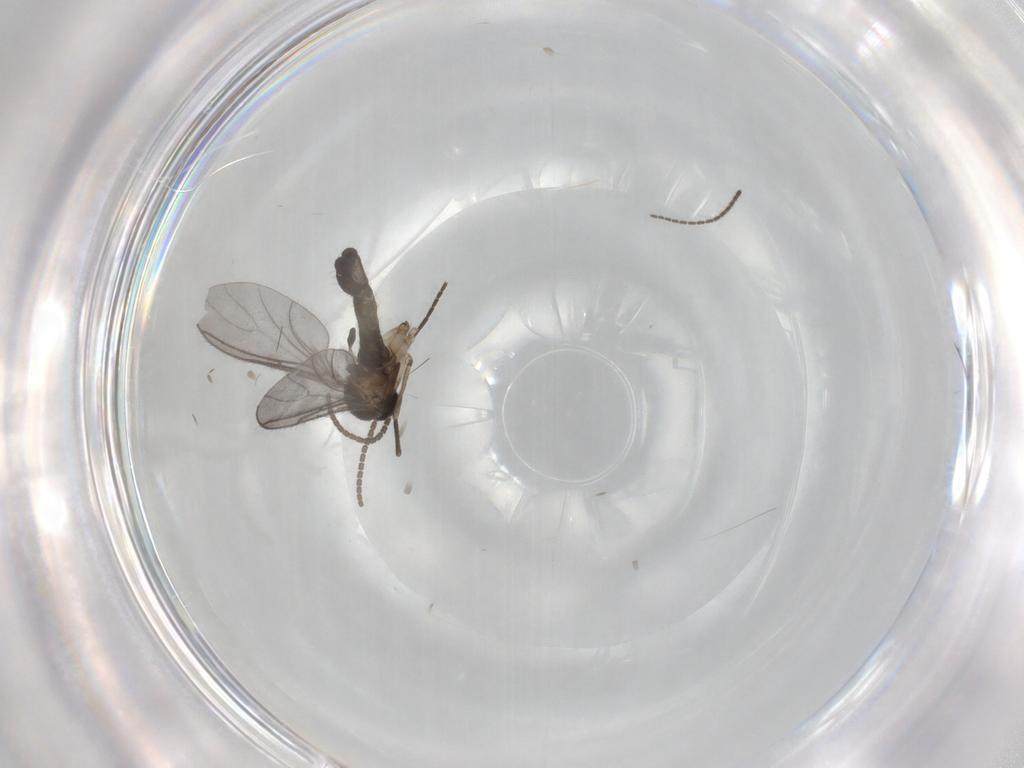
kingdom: Animalia
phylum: Arthropoda
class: Insecta
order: Diptera
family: Sciaridae
